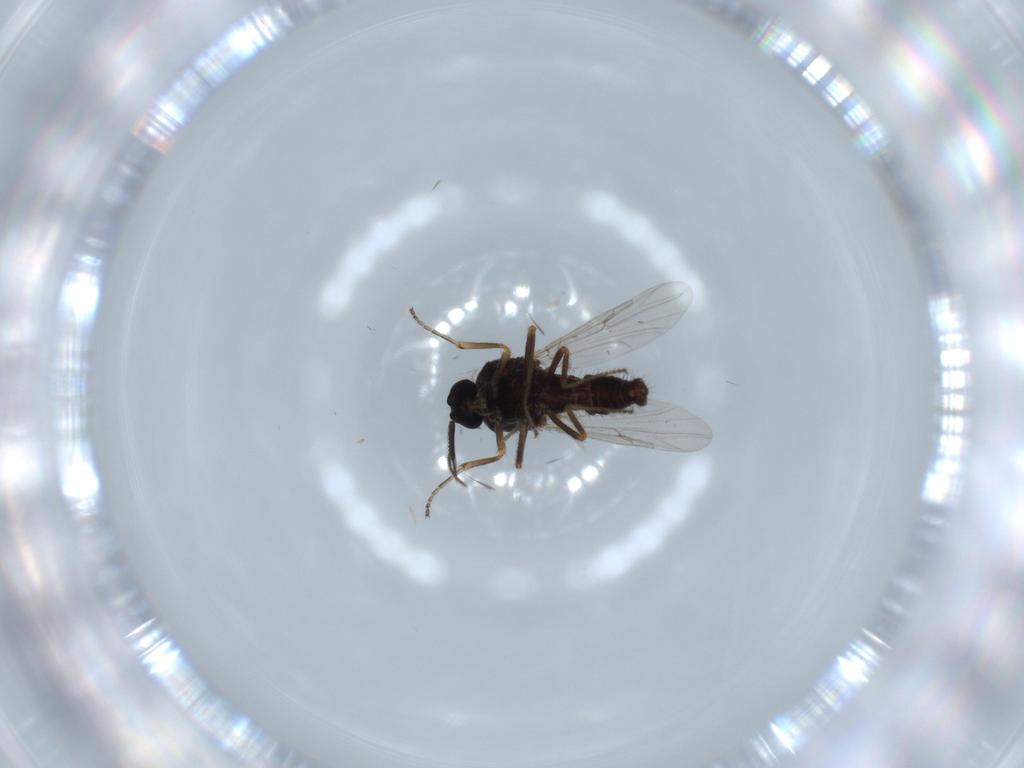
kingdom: Animalia
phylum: Arthropoda
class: Insecta
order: Diptera
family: Ceratopogonidae
